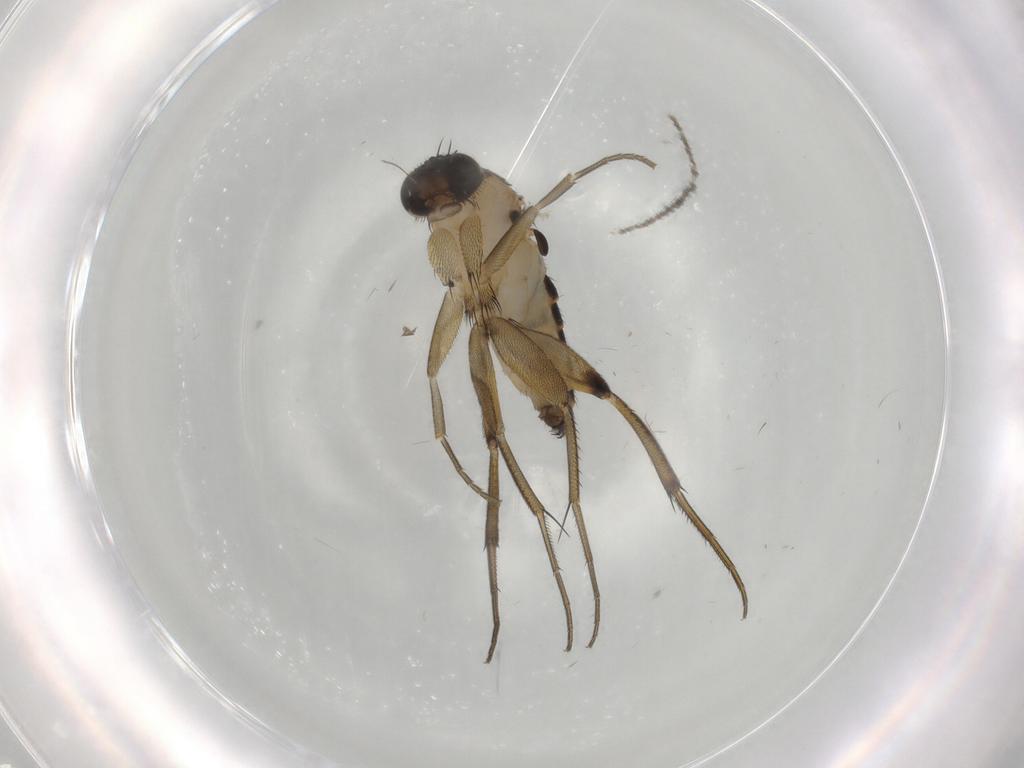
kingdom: Animalia
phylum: Arthropoda
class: Insecta
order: Diptera
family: Cecidomyiidae
